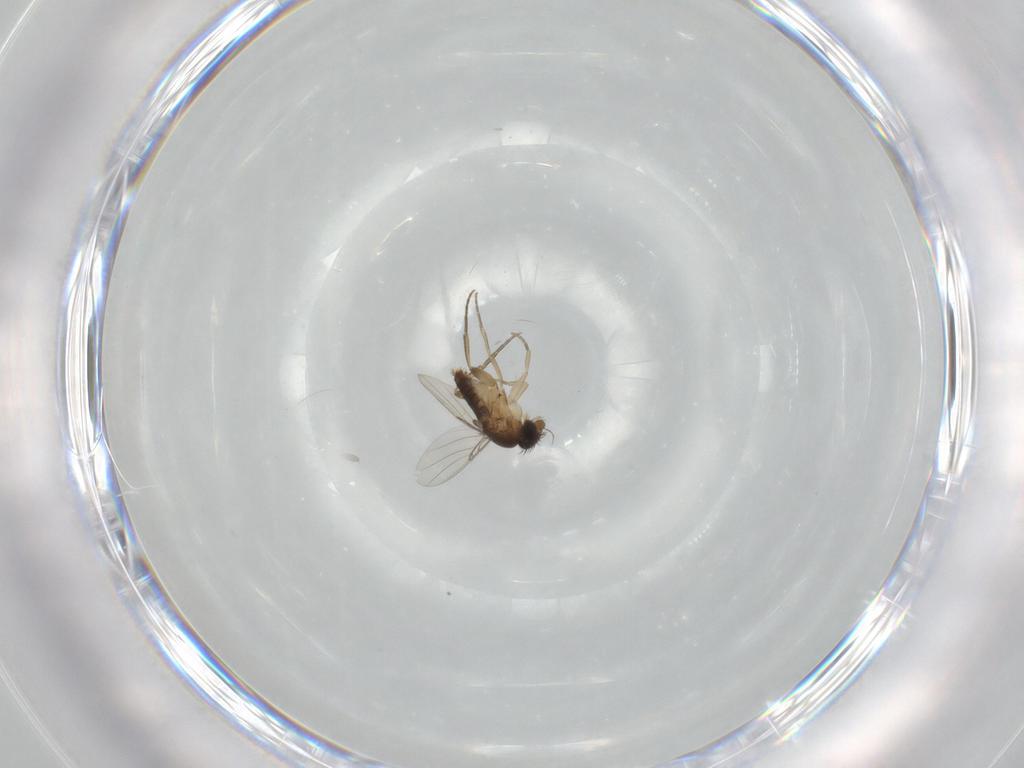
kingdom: Animalia
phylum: Arthropoda
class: Insecta
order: Diptera
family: Cecidomyiidae
